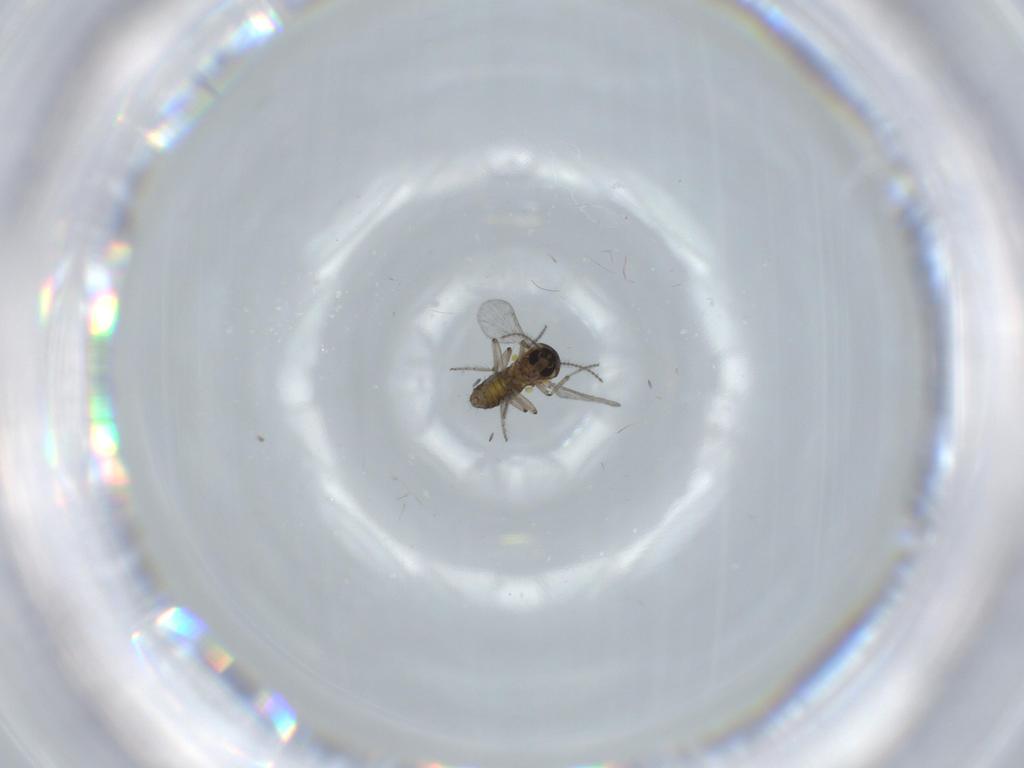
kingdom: Animalia
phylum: Arthropoda
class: Insecta
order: Diptera
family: Ceratopogonidae
